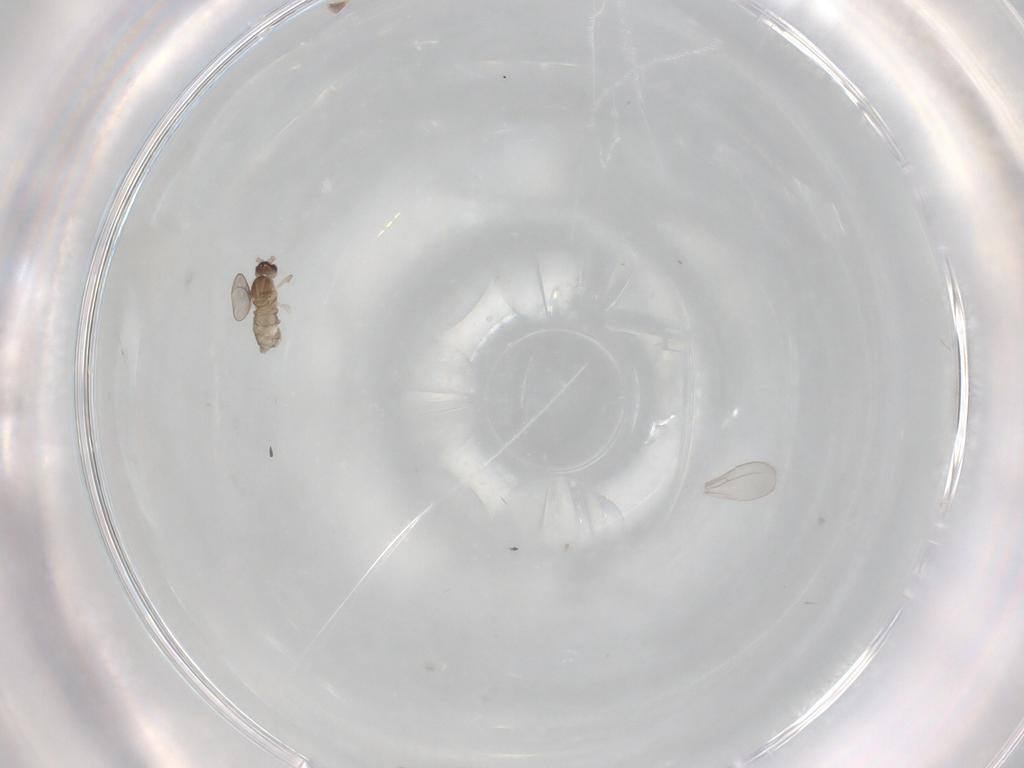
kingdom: Animalia
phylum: Arthropoda
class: Insecta
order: Diptera
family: Cecidomyiidae
